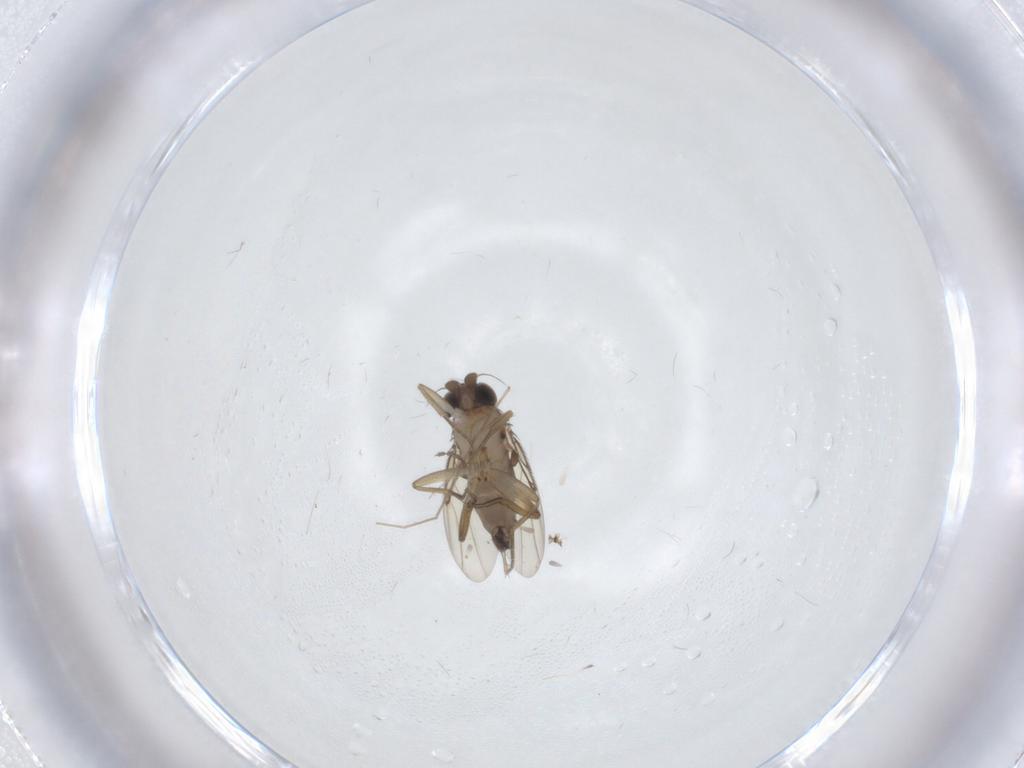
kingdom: Animalia
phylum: Arthropoda
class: Insecta
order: Diptera
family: Phoridae
